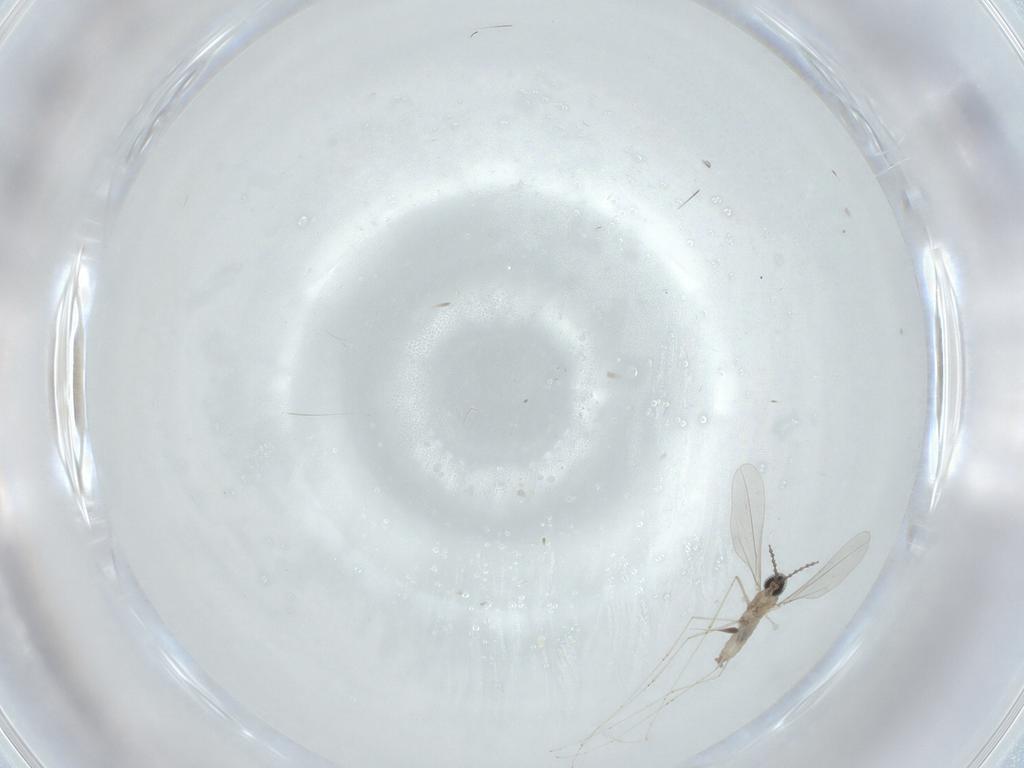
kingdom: Animalia
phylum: Arthropoda
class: Insecta
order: Diptera
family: Cecidomyiidae
